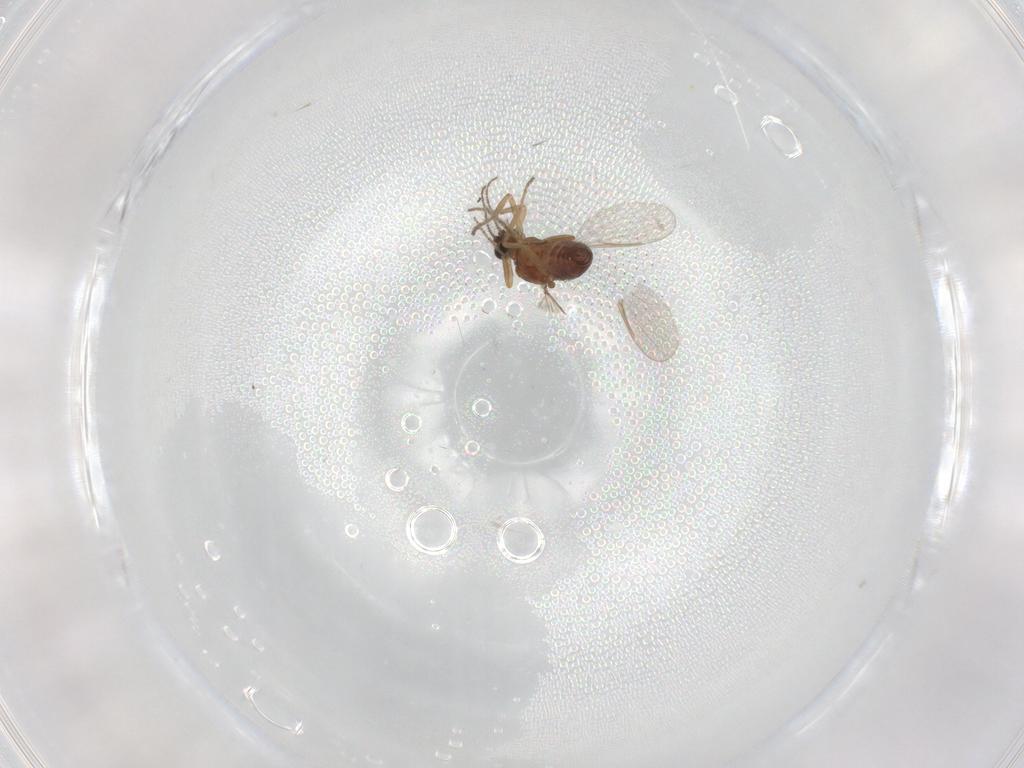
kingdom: Animalia
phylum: Arthropoda
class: Insecta
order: Diptera
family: Ceratopogonidae
